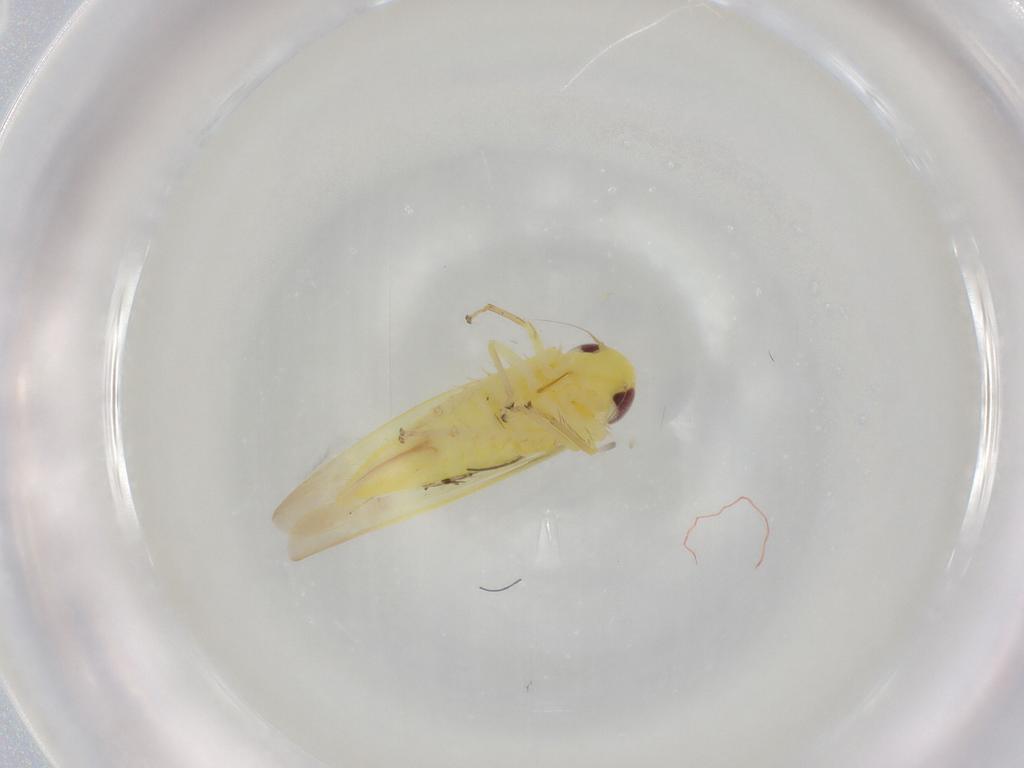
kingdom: Animalia
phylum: Arthropoda
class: Insecta
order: Hemiptera
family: Cicadellidae
